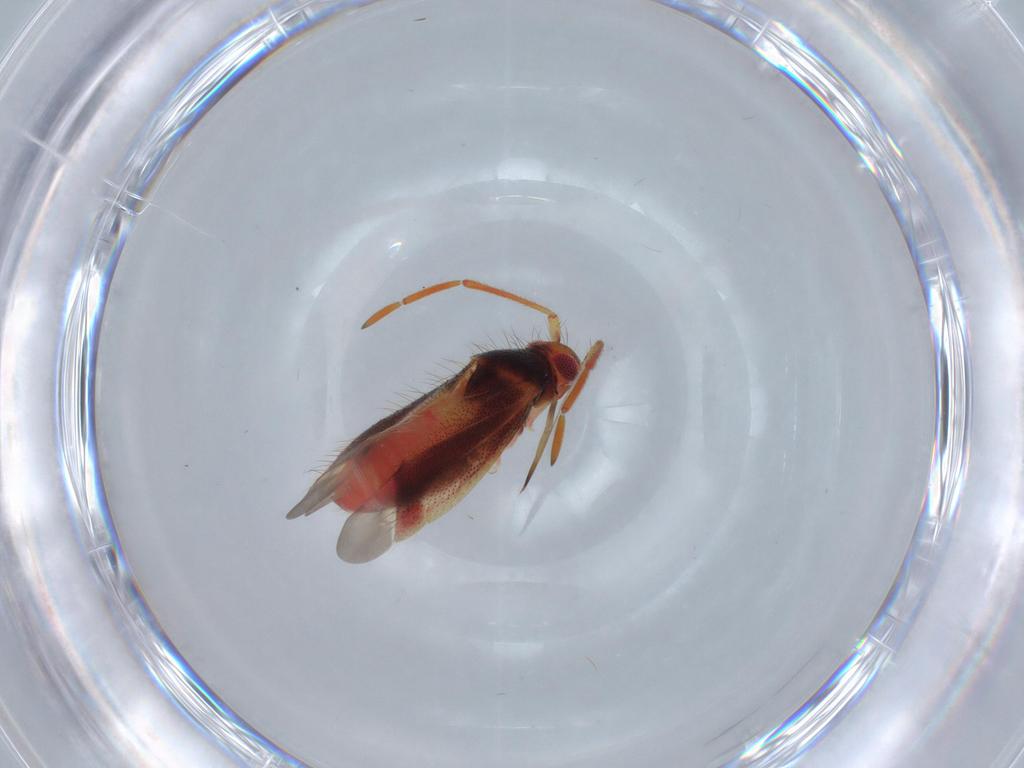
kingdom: Animalia
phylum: Arthropoda
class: Insecta
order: Hemiptera
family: Miridae
